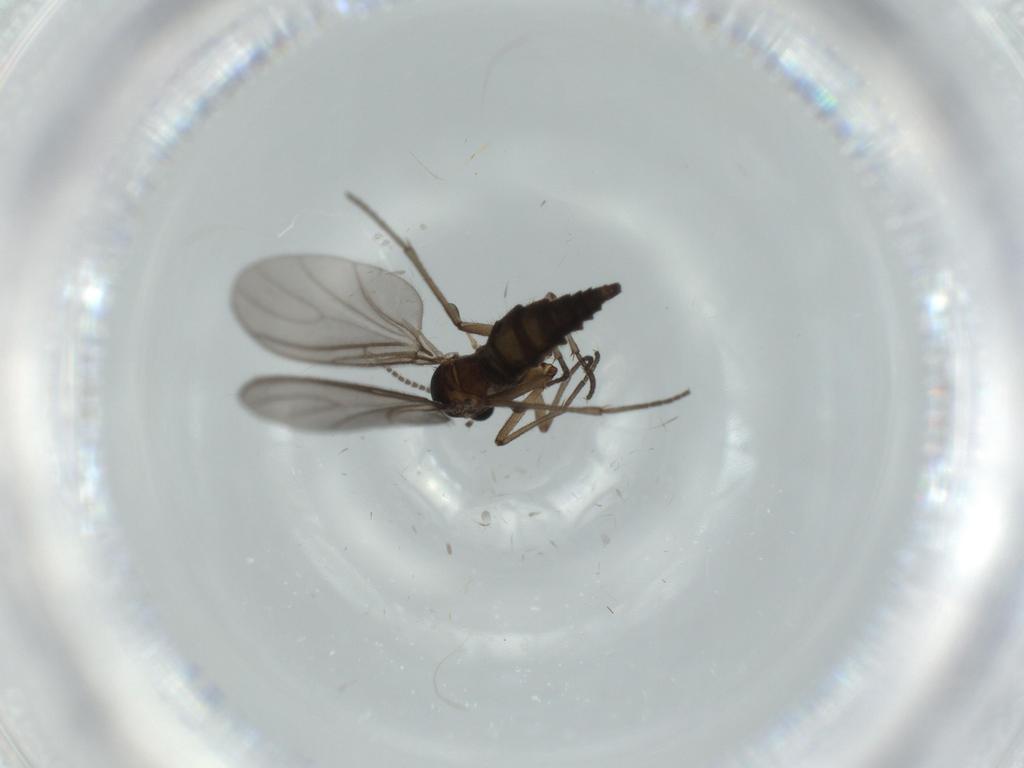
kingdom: Animalia
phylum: Arthropoda
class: Insecta
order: Diptera
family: Sciaridae
